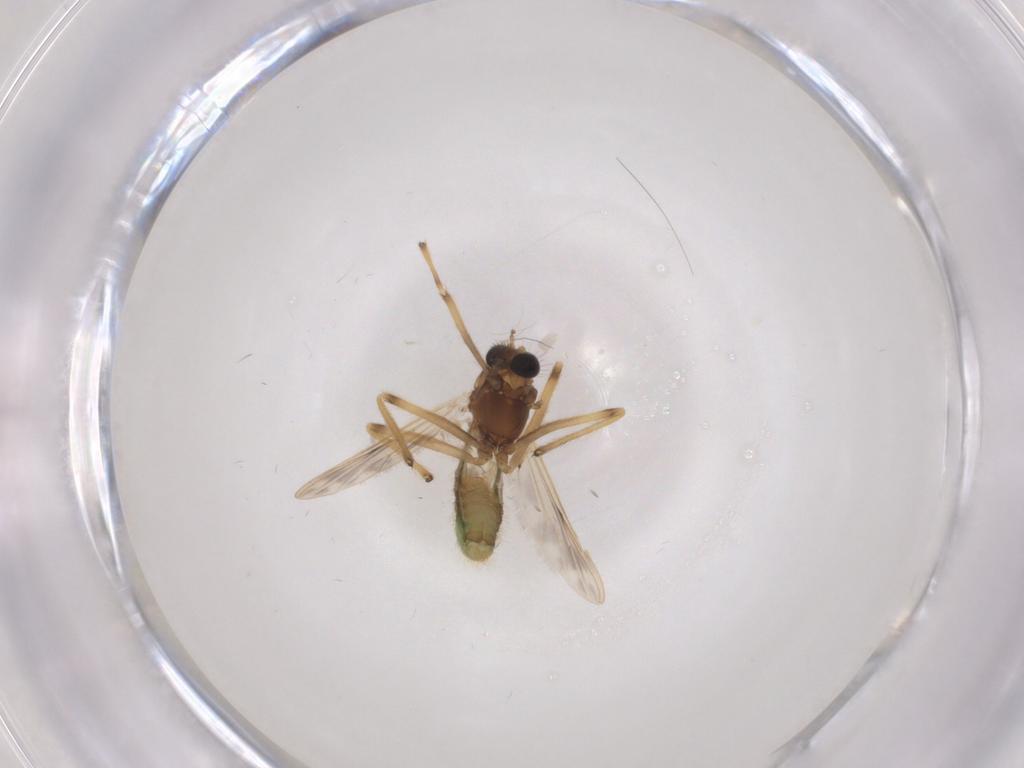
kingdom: Animalia
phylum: Arthropoda
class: Insecta
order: Diptera
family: Chironomidae
